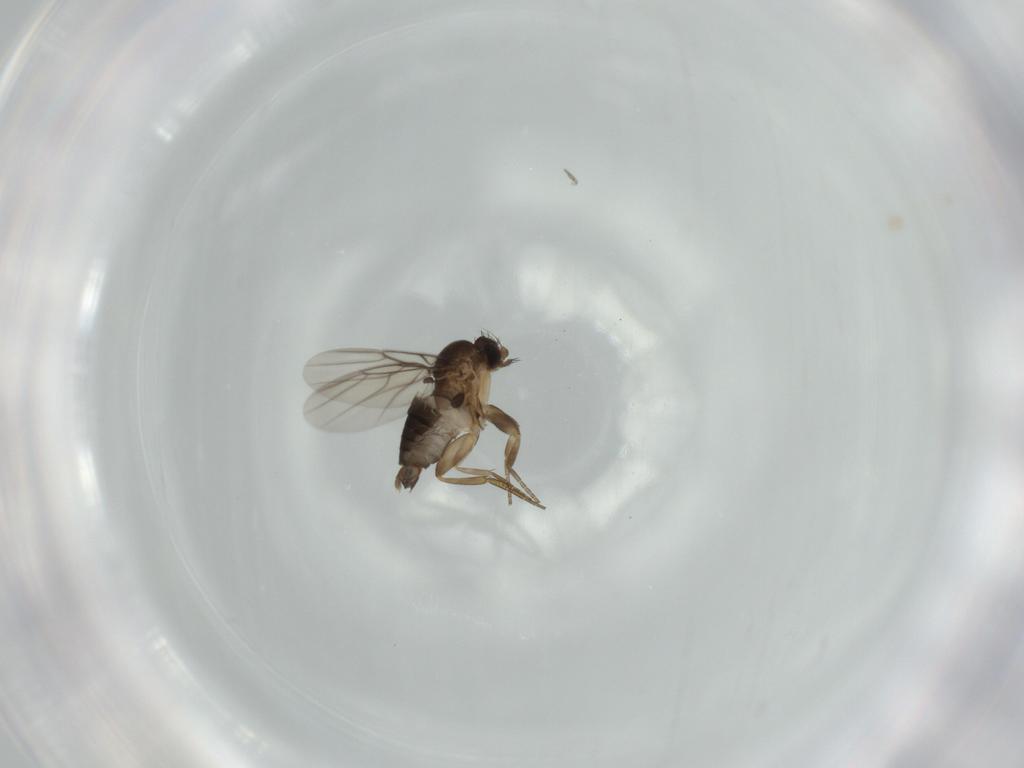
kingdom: Animalia
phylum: Arthropoda
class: Insecta
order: Diptera
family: Phoridae
